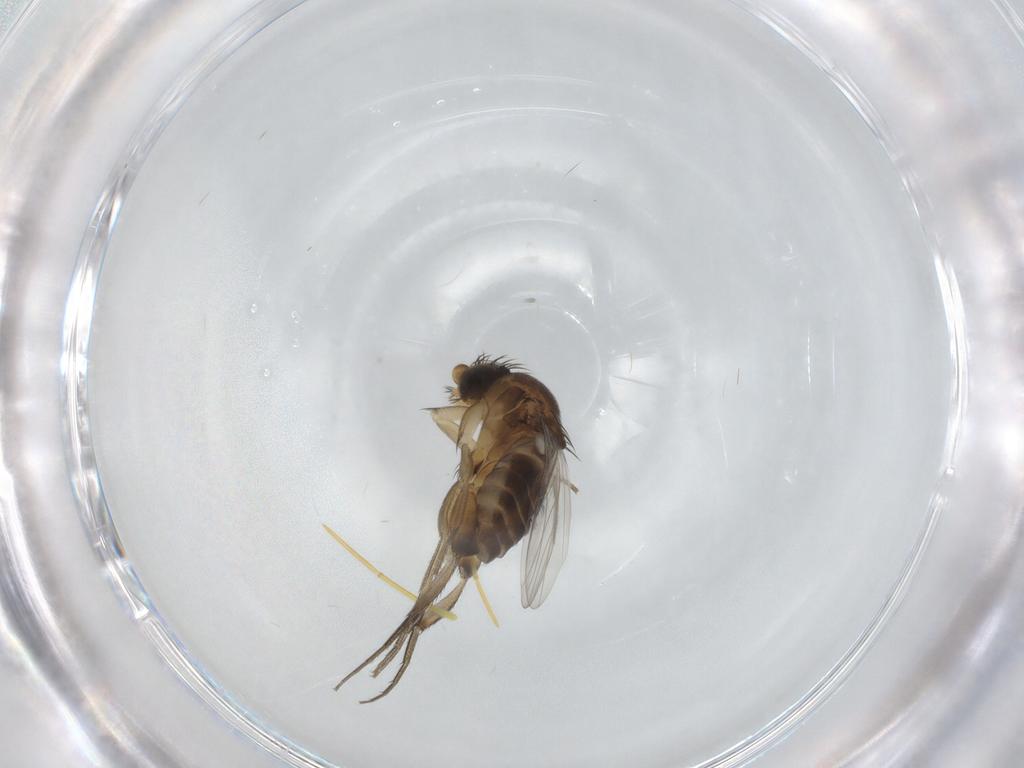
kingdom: Animalia
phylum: Arthropoda
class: Insecta
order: Diptera
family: Phoridae
